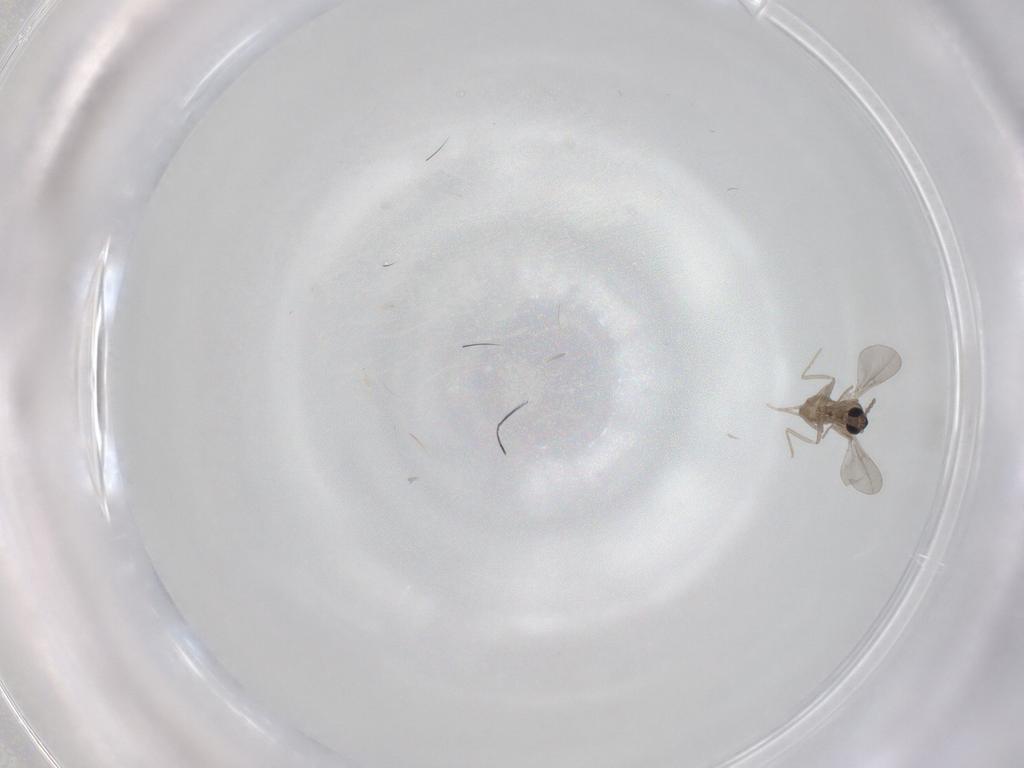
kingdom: Animalia
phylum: Arthropoda
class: Insecta
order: Diptera
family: Cecidomyiidae
